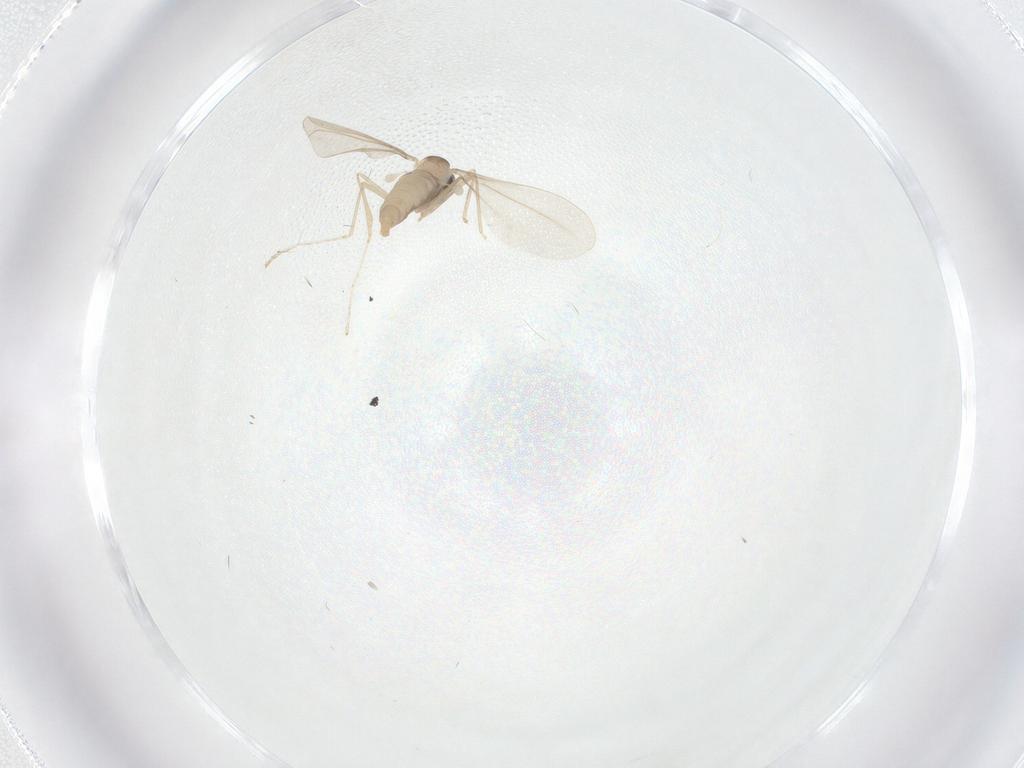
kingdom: Animalia
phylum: Arthropoda
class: Insecta
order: Diptera
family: Cecidomyiidae
